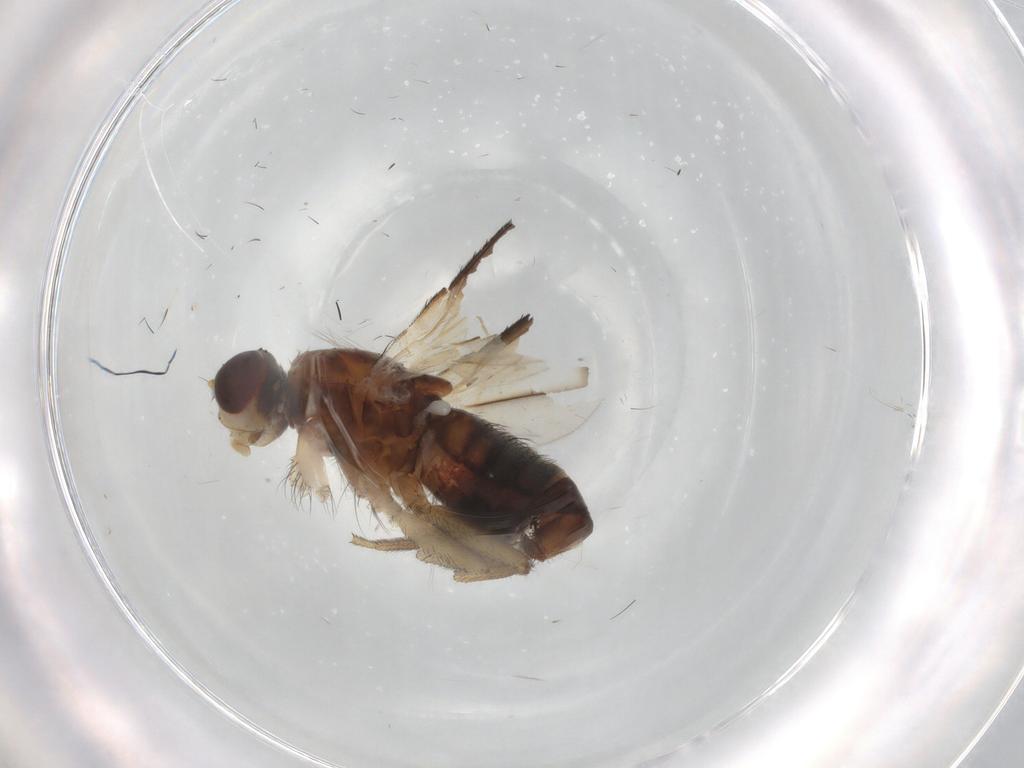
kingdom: Animalia
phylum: Arthropoda
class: Insecta
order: Diptera
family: Heleomyzidae
